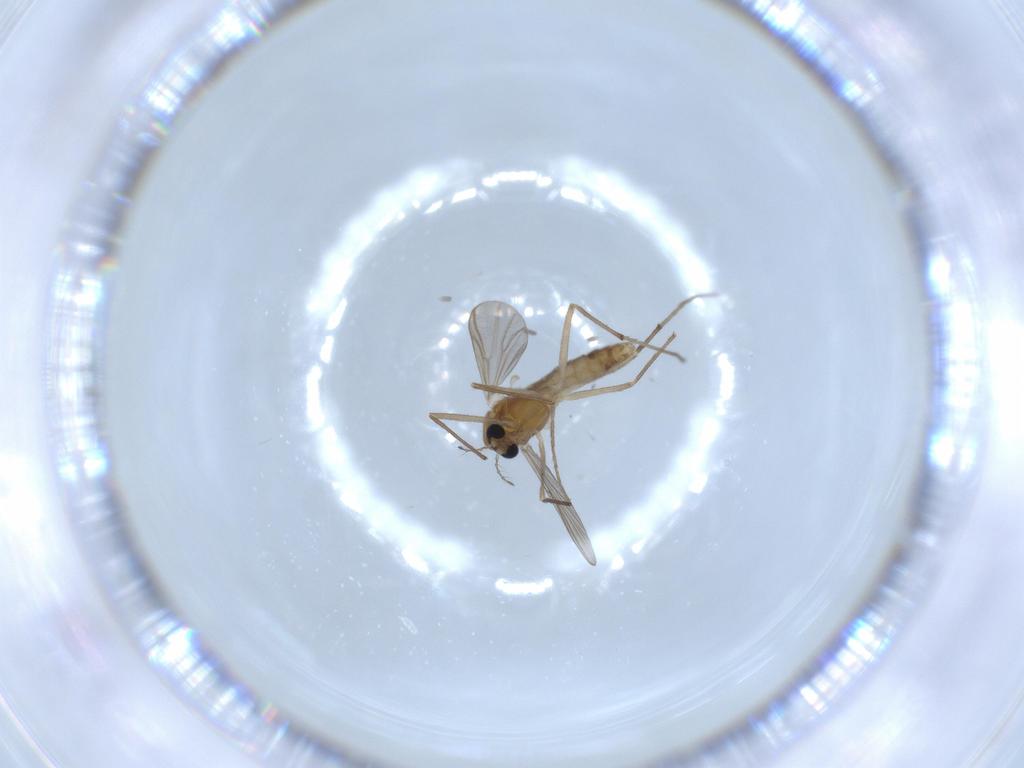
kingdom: Animalia
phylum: Arthropoda
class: Insecta
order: Diptera
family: Chironomidae
